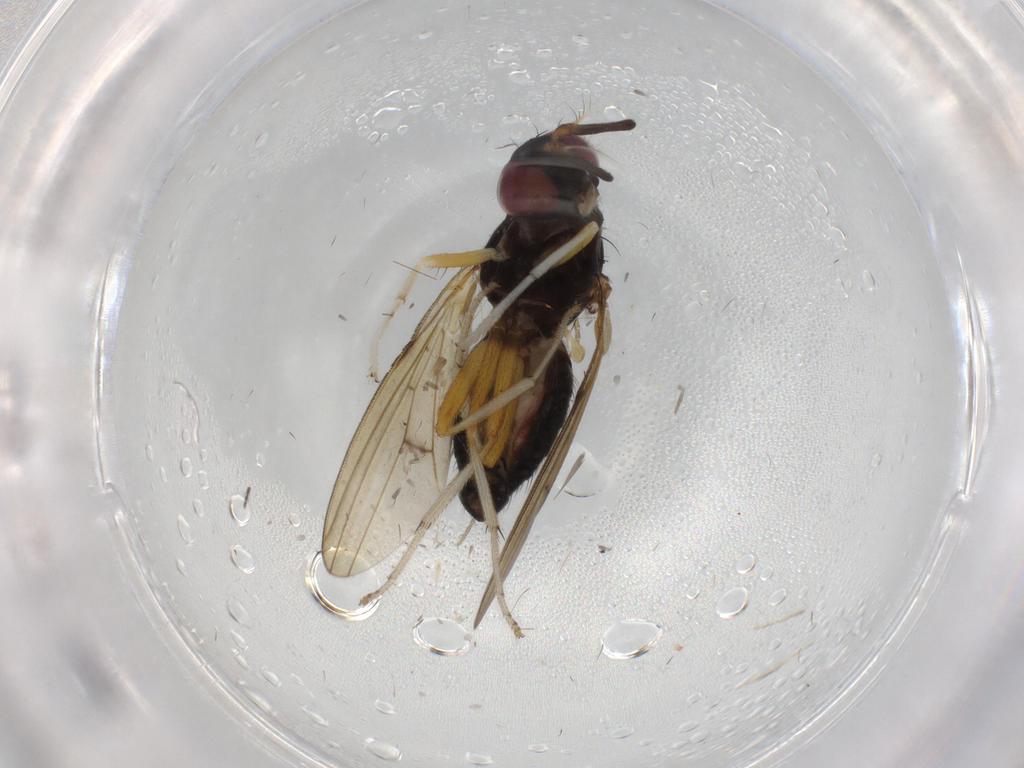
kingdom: Animalia
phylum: Arthropoda
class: Insecta
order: Diptera
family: Lauxaniidae
